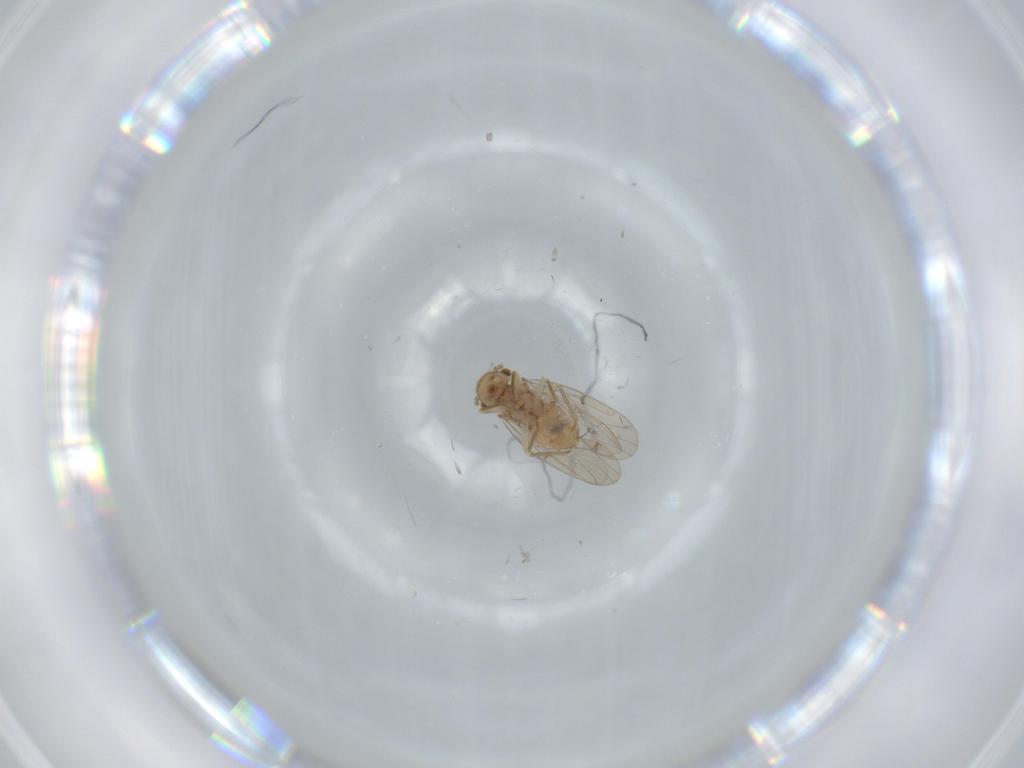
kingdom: Animalia
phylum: Arthropoda
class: Insecta
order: Psocodea
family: Ectopsocidae
